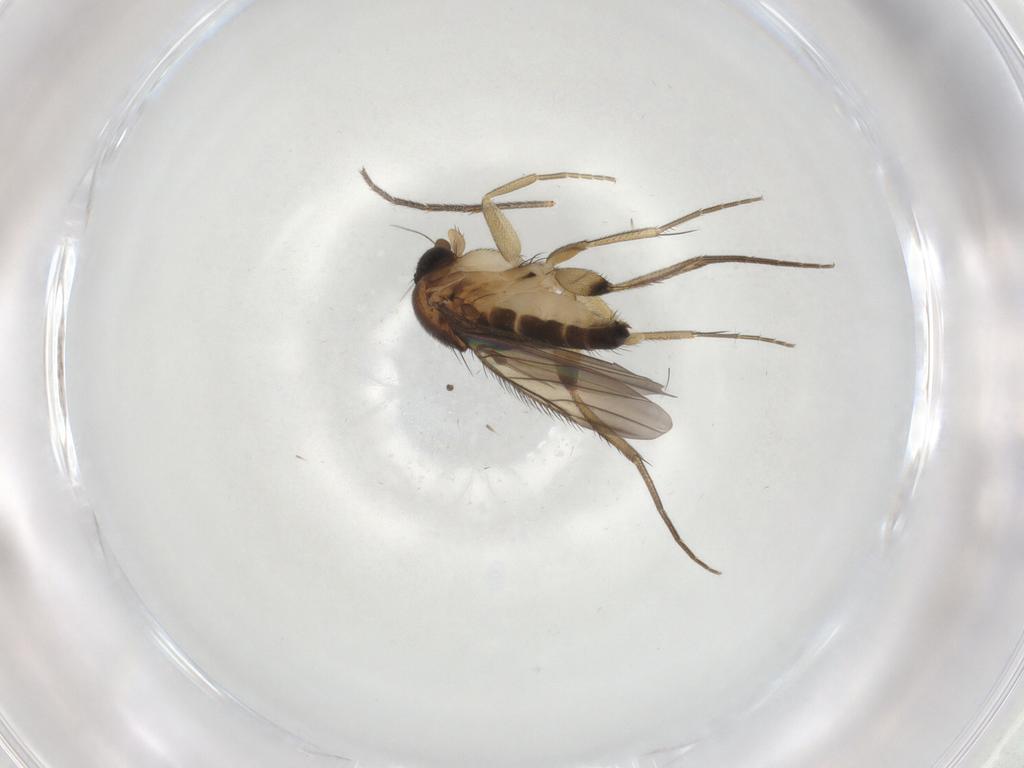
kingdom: Animalia
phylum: Arthropoda
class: Insecta
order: Diptera
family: Phoridae
